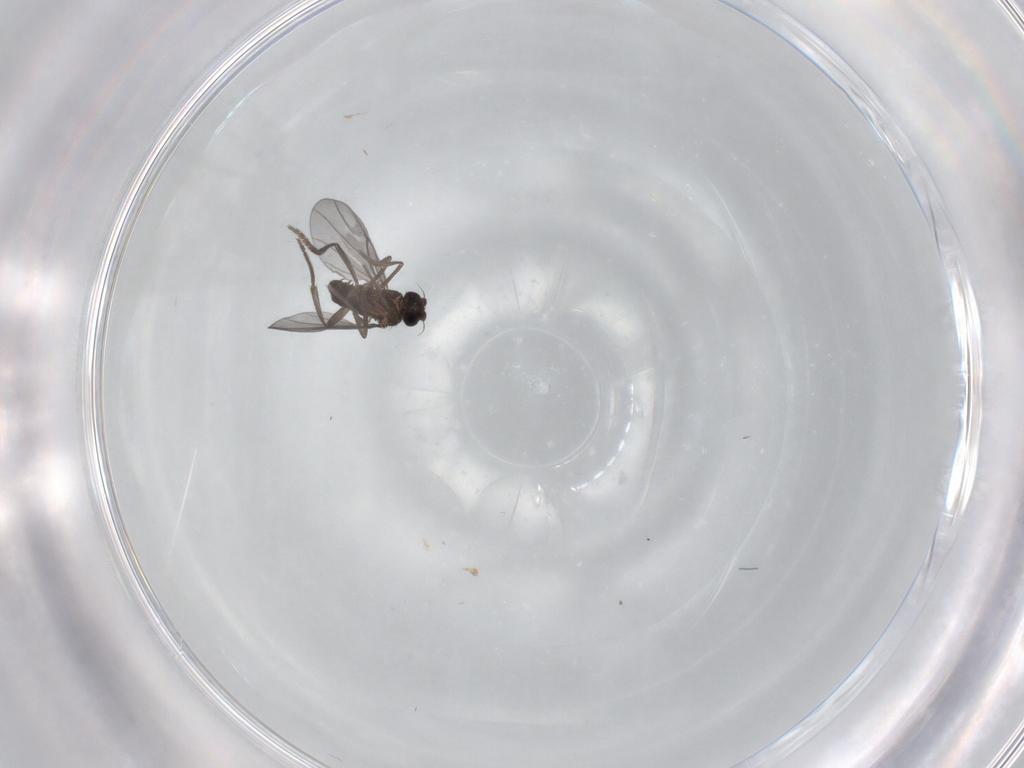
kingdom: Animalia
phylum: Arthropoda
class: Insecta
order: Diptera
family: Phoridae
